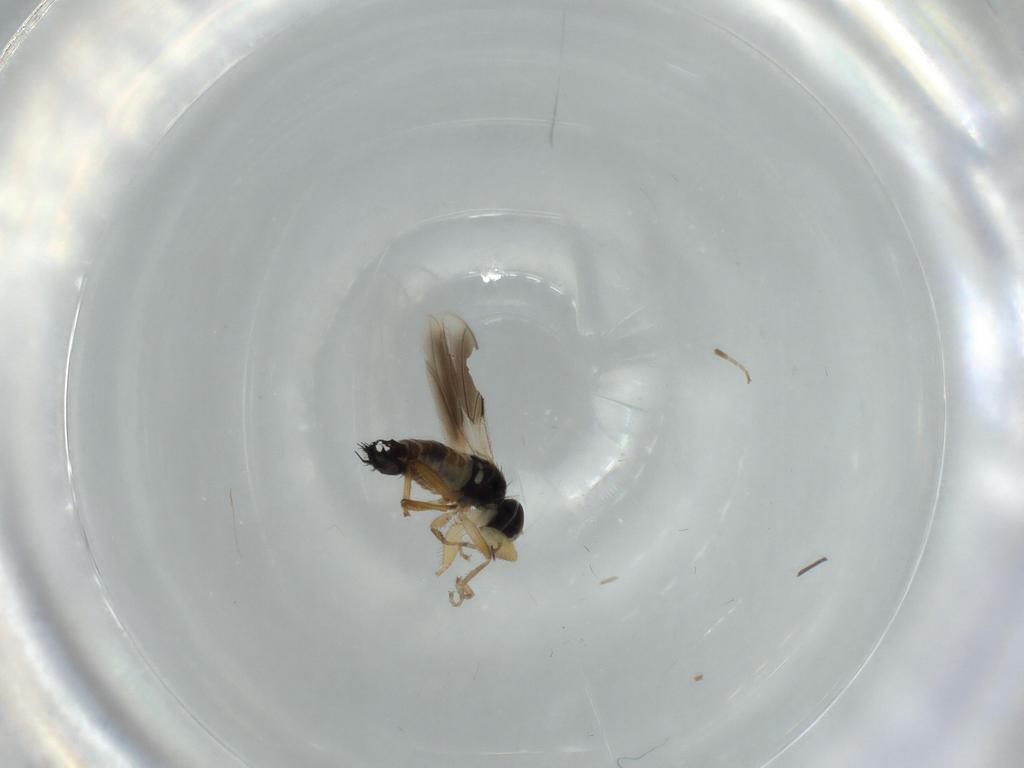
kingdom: Animalia
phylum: Arthropoda
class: Insecta
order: Diptera
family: Hybotidae
